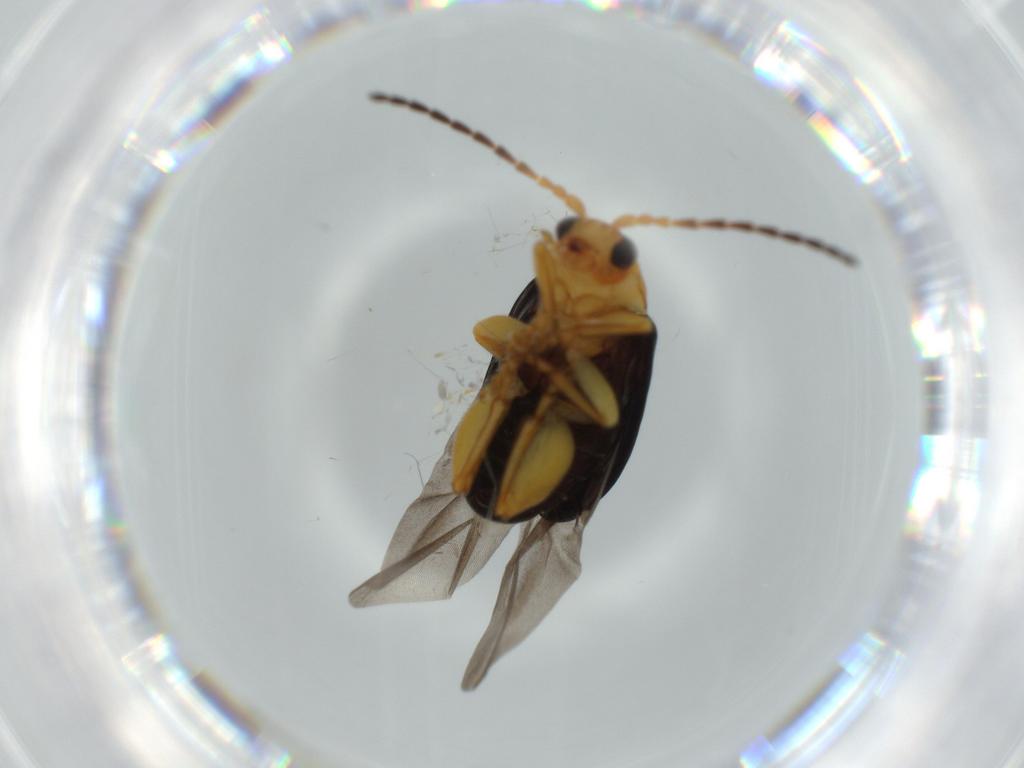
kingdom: Animalia
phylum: Arthropoda
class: Insecta
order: Coleoptera
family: Chrysomelidae
